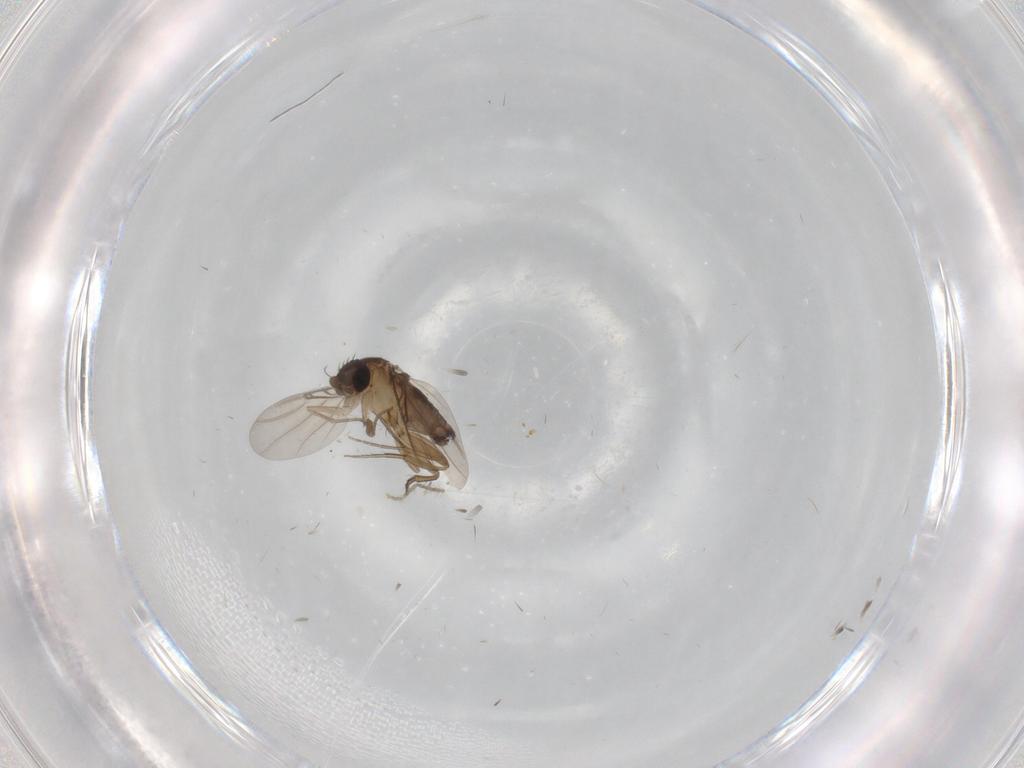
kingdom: Animalia
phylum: Arthropoda
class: Insecta
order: Diptera
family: Phoridae
